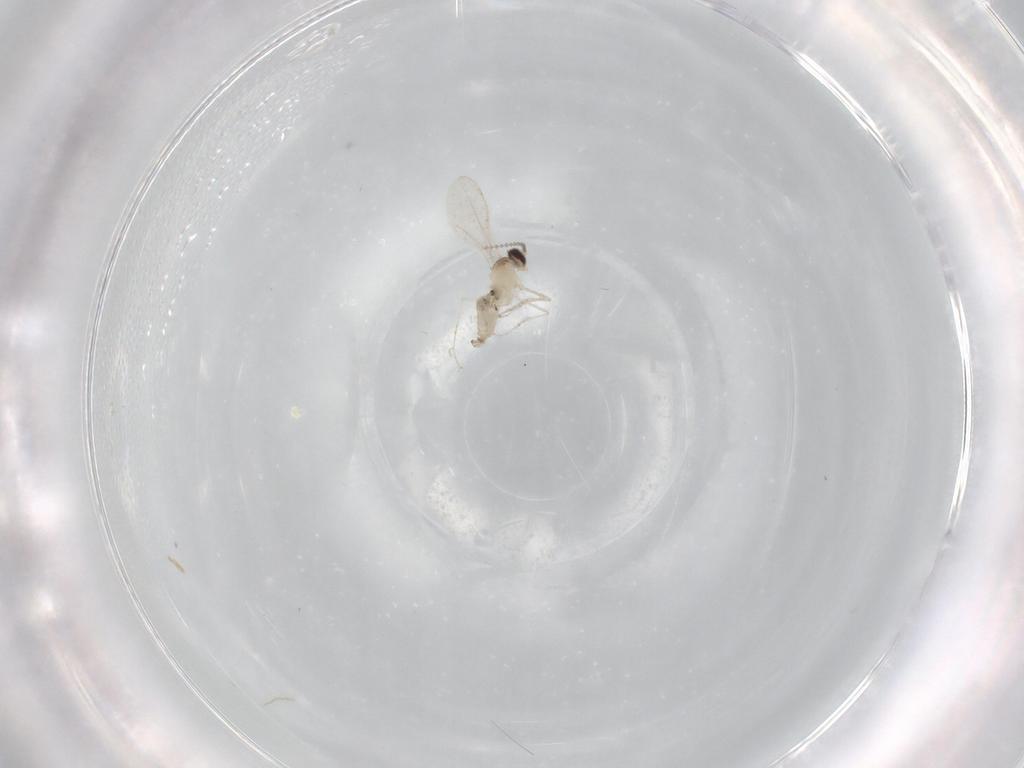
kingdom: Animalia
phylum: Arthropoda
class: Insecta
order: Diptera
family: Cecidomyiidae
